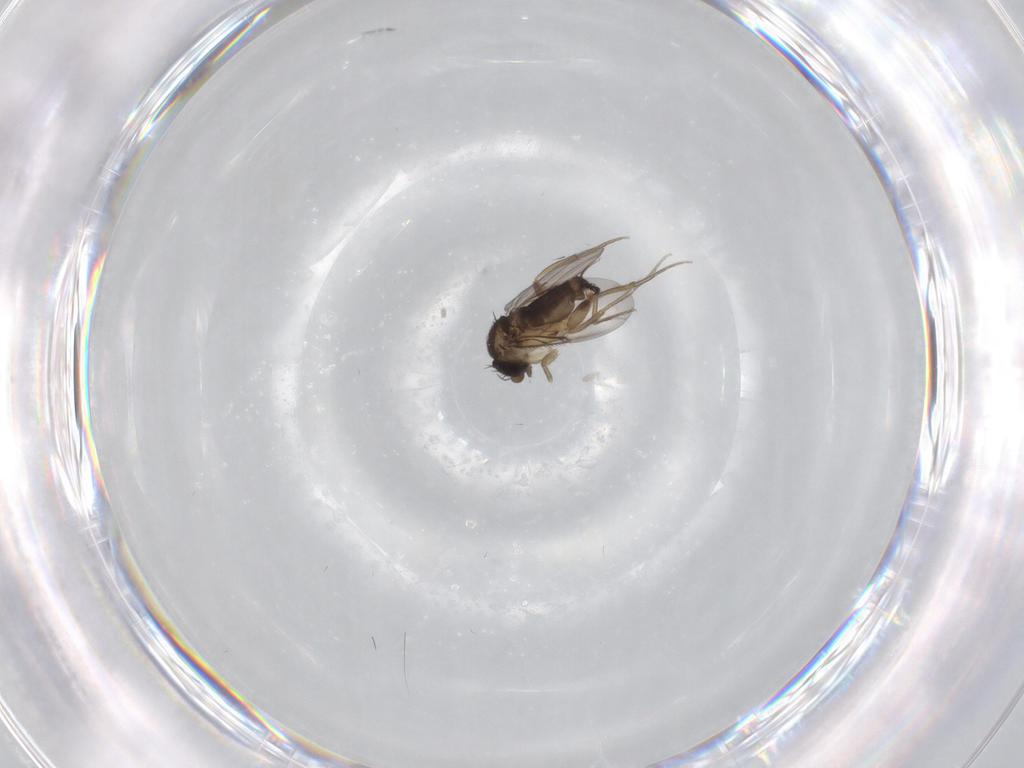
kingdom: Animalia
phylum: Arthropoda
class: Insecta
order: Diptera
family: Phoridae
